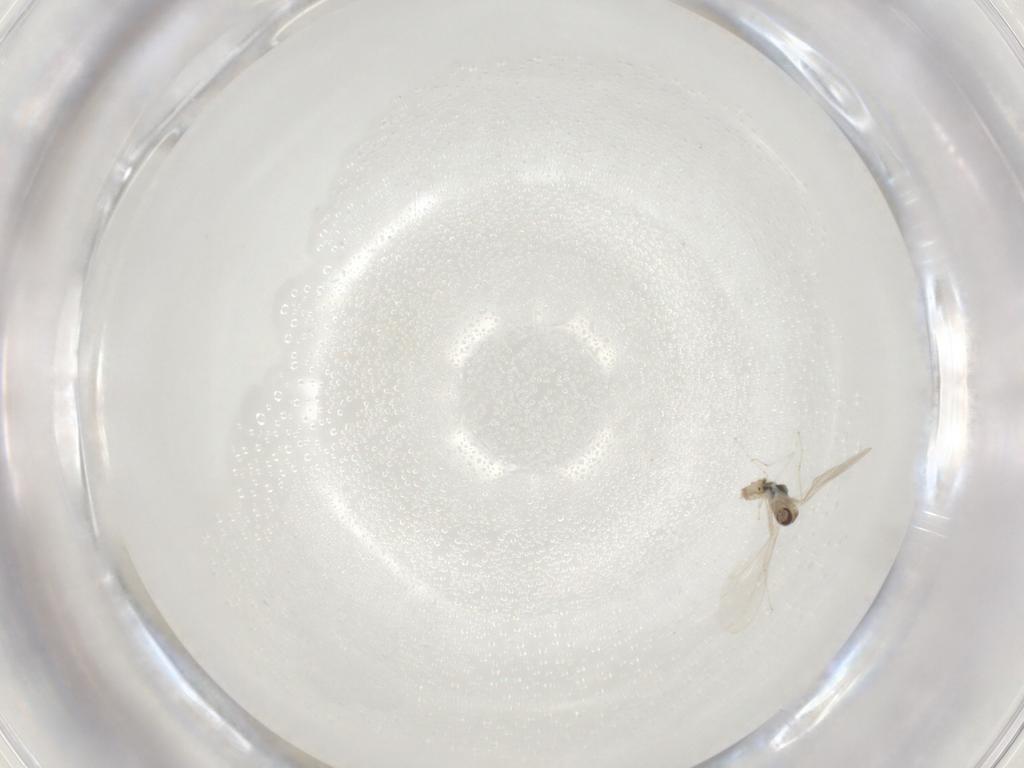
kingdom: Animalia
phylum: Arthropoda
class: Insecta
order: Diptera
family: Cecidomyiidae
